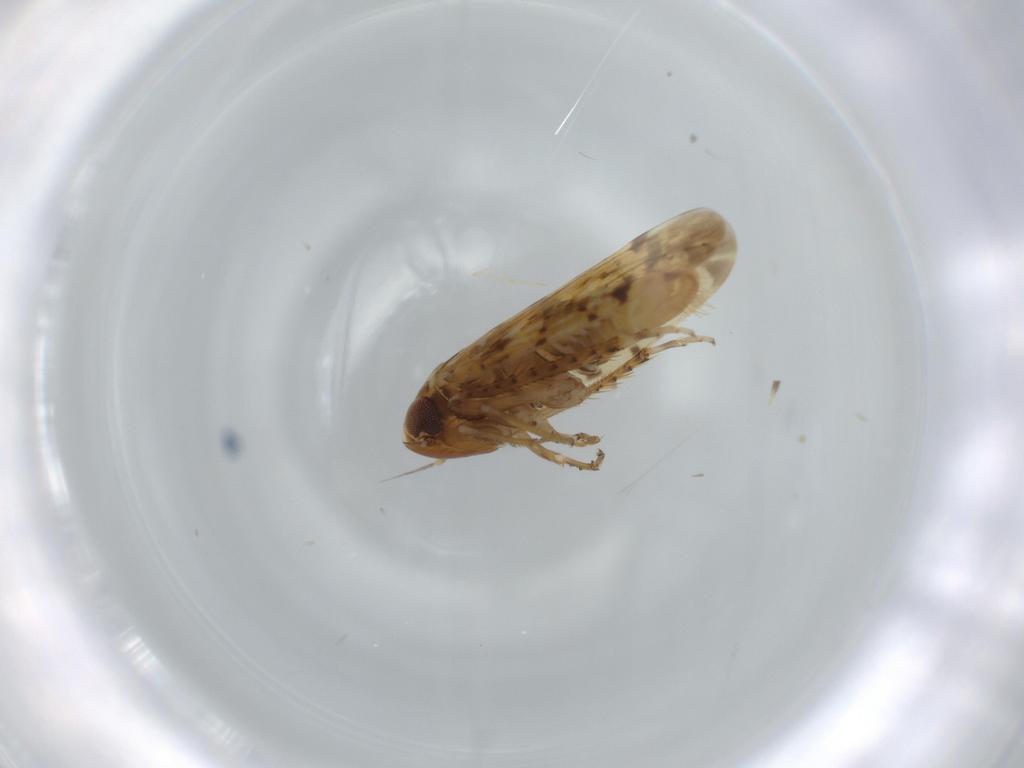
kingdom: Animalia
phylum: Arthropoda
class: Insecta
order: Hemiptera
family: Cicadellidae
